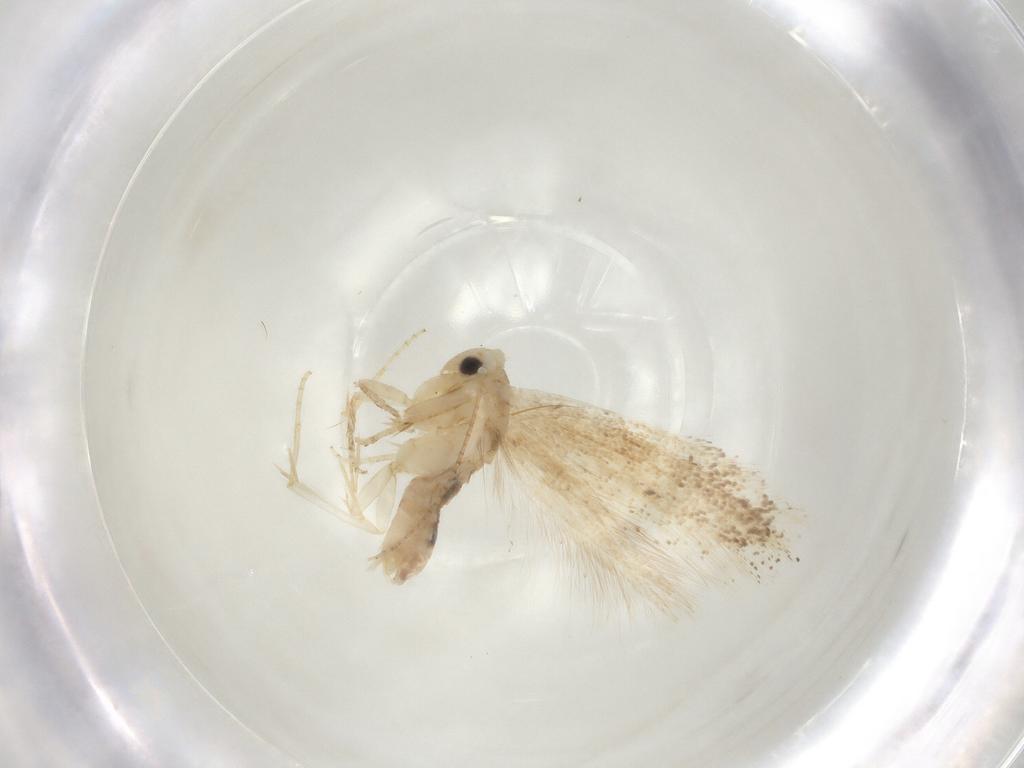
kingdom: Animalia
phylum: Arthropoda
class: Insecta
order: Lepidoptera
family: Bucculatricidae
